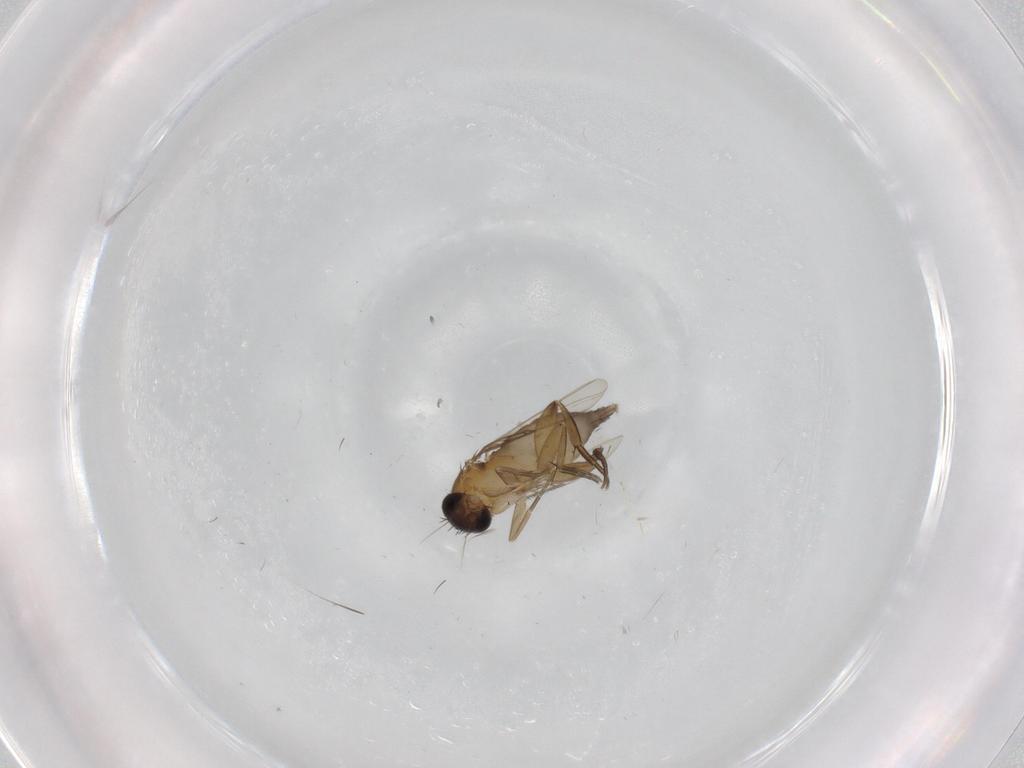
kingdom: Animalia
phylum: Arthropoda
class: Insecta
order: Diptera
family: Phoridae
